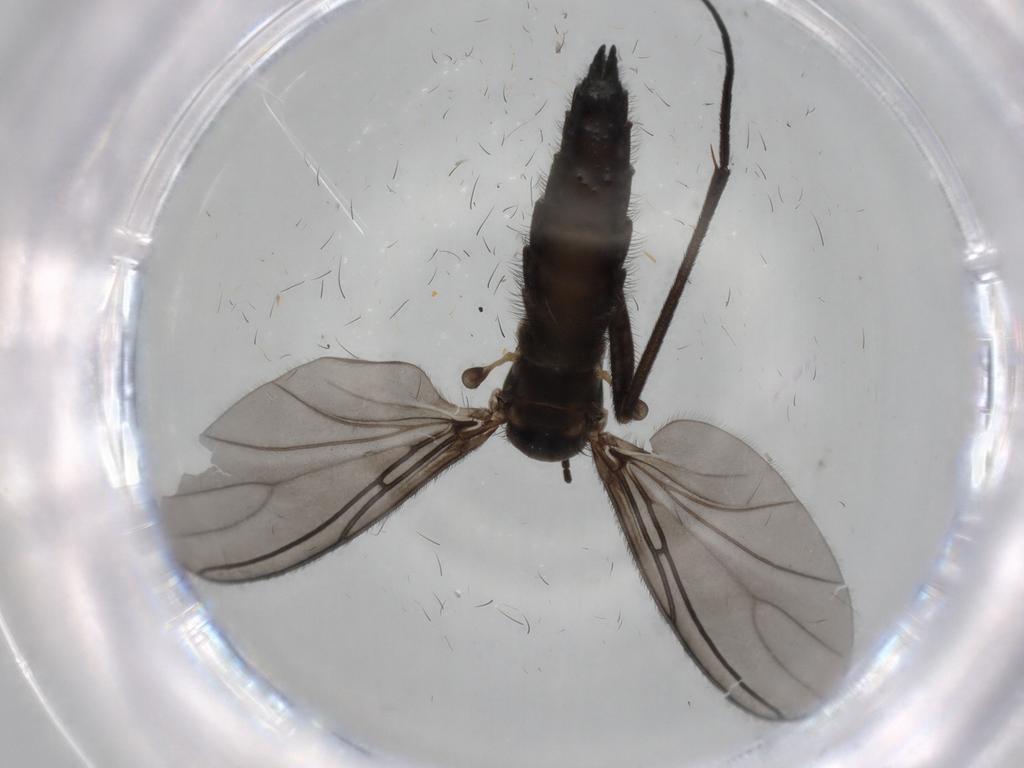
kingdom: Animalia
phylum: Arthropoda
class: Insecta
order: Diptera
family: Sciaridae
